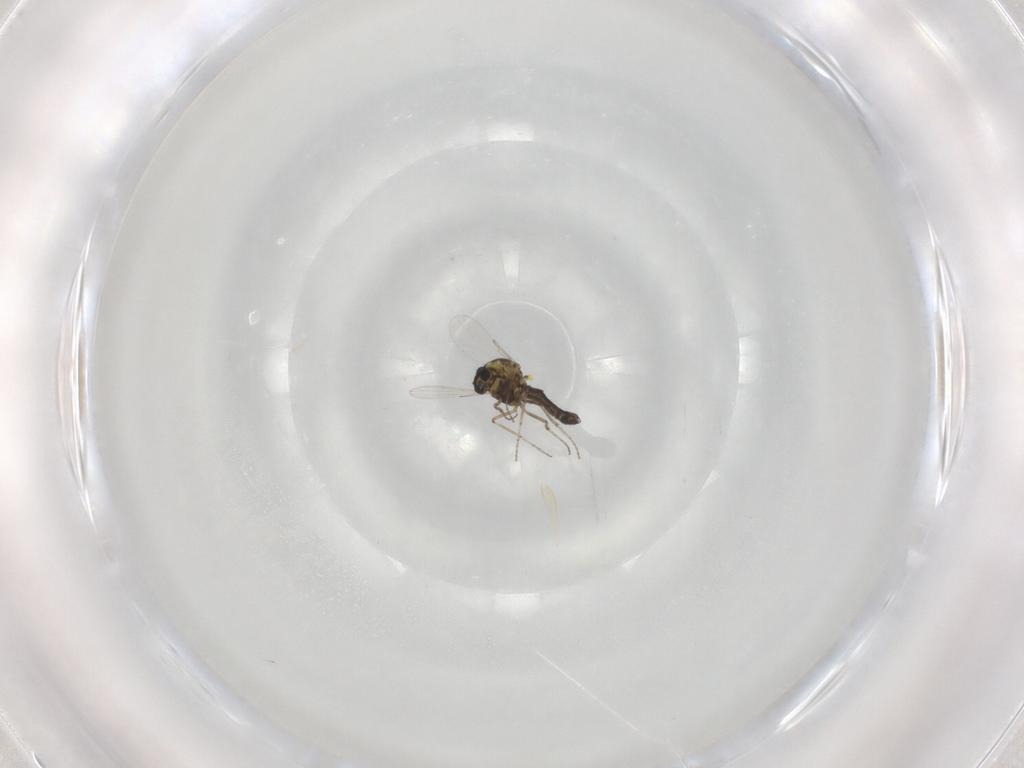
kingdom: Animalia
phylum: Arthropoda
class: Insecta
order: Diptera
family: Ceratopogonidae
